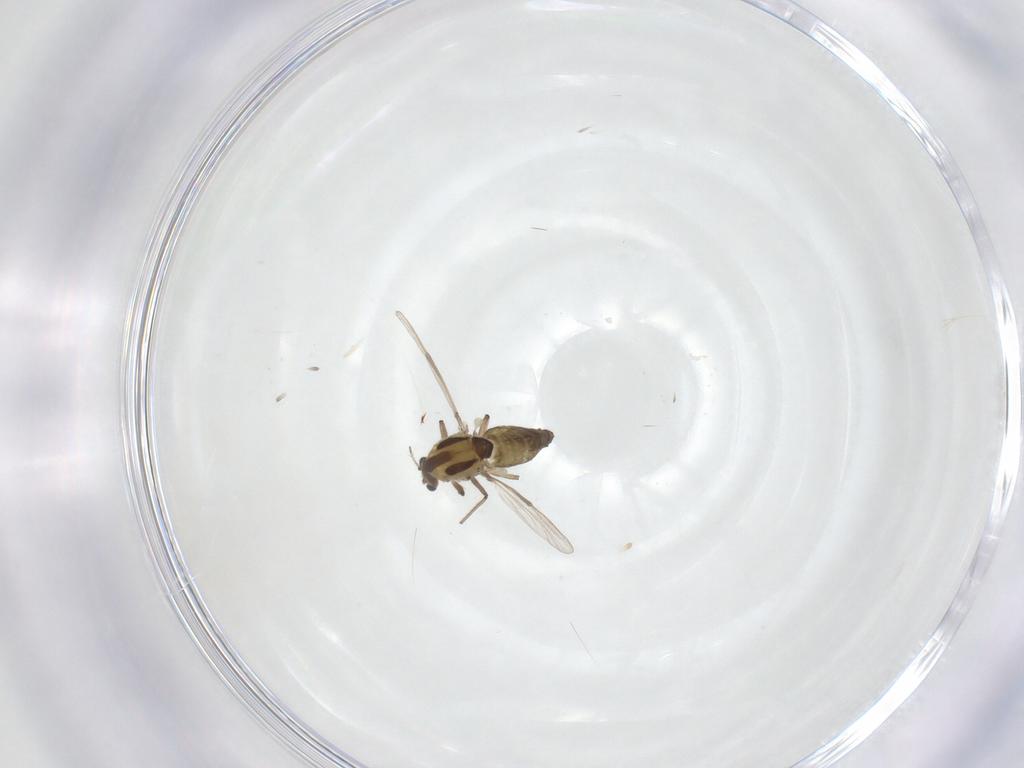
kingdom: Animalia
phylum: Arthropoda
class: Insecta
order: Diptera
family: Chironomidae
